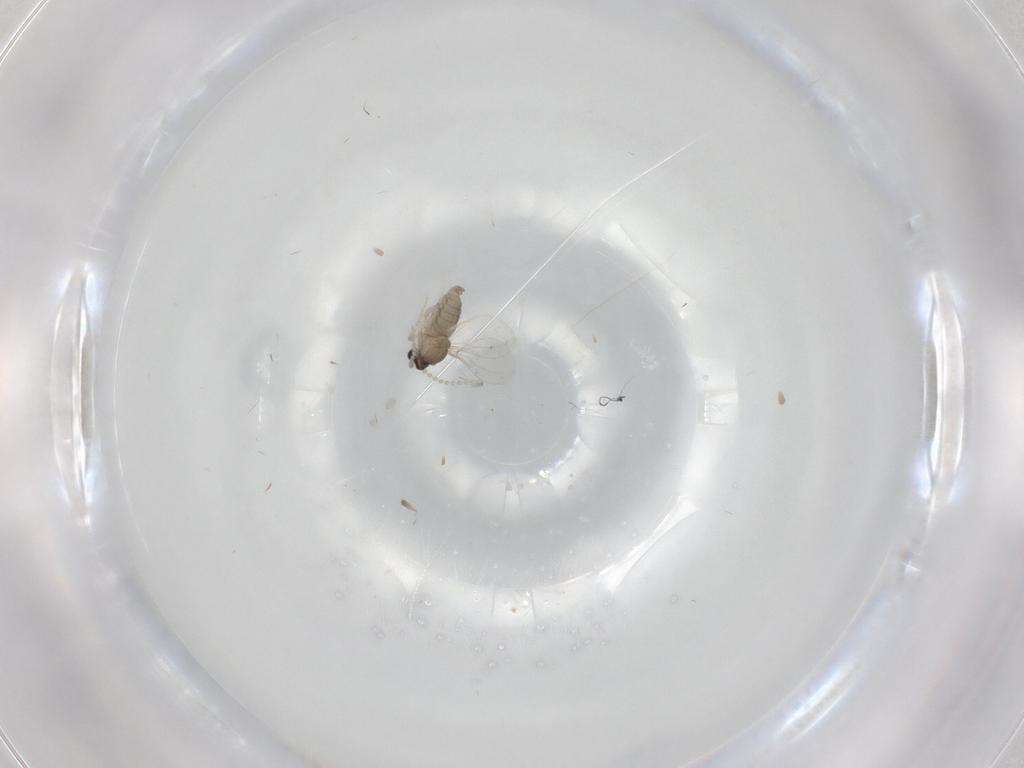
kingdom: Animalia
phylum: Arthropoda
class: Insecta
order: Diptera
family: Cecidomyiidae
